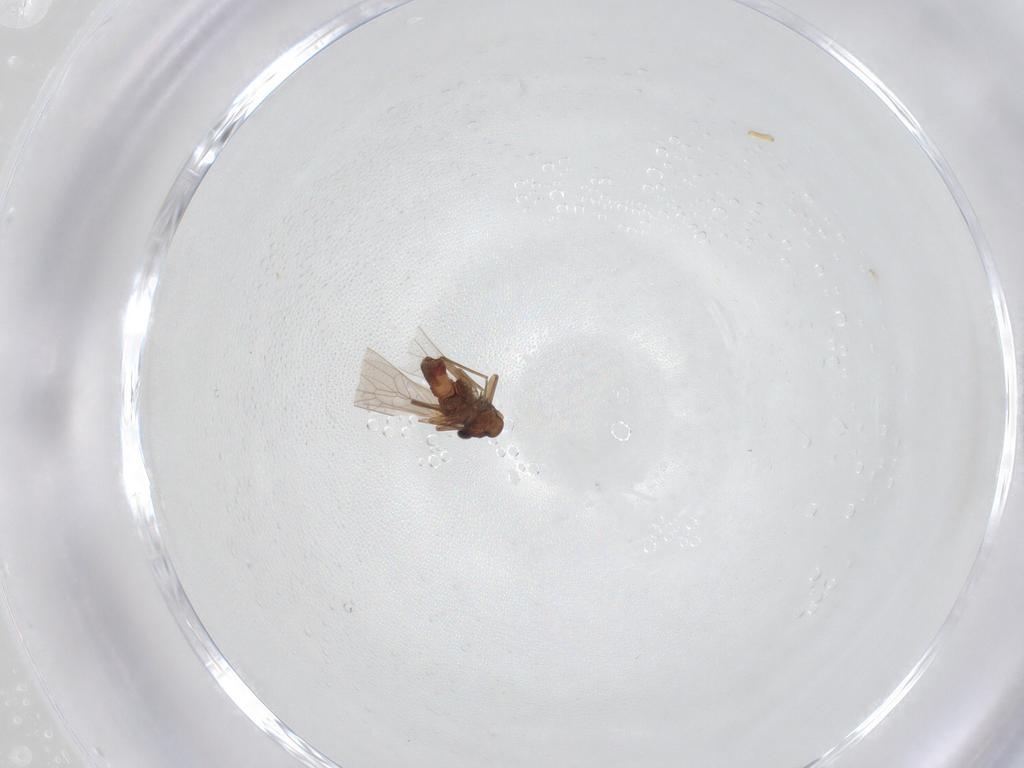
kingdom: Animalia
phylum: Arthropoda
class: Insecta
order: Psocodea
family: Lepidopsocidae
